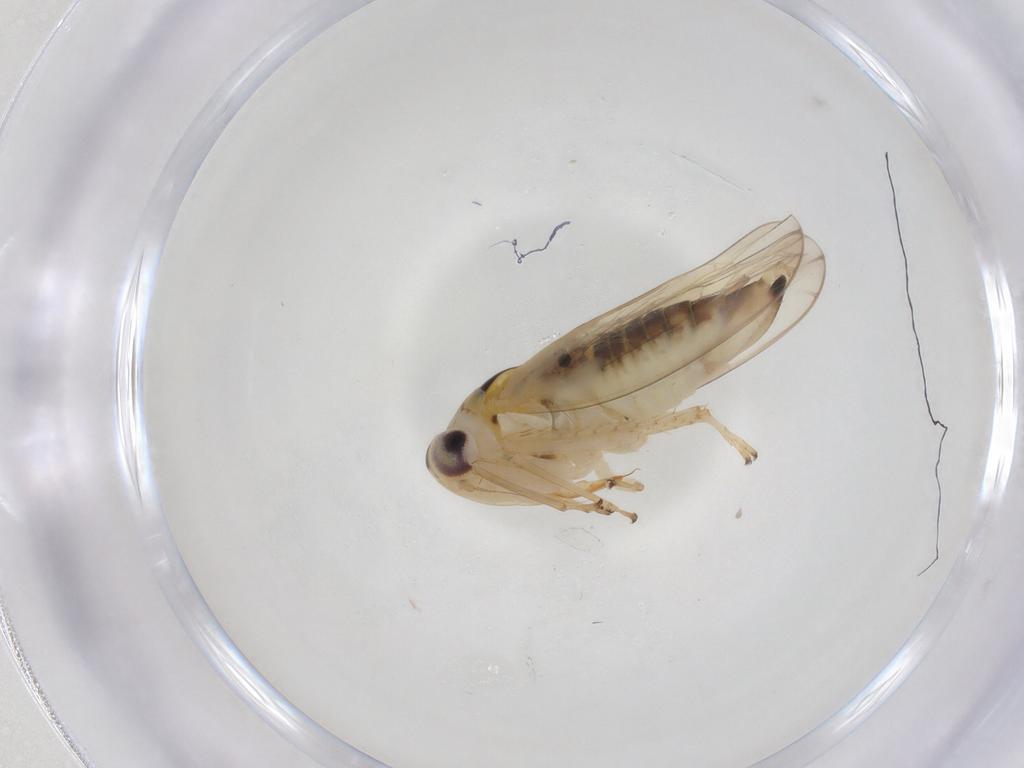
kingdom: Animalia
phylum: Arthropoda
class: Insecta
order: Hemiptera
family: Cicadellidae
